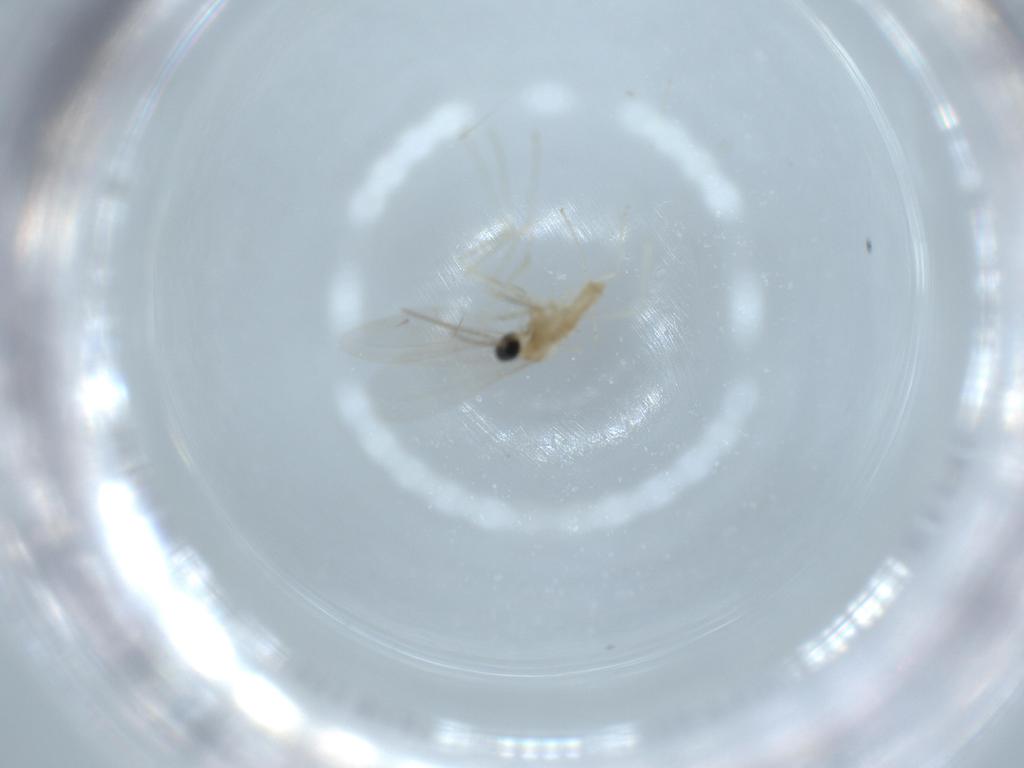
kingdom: Animalia
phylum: Arthropoda
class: Insecta
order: Diptera
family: Cecidomyiidae
